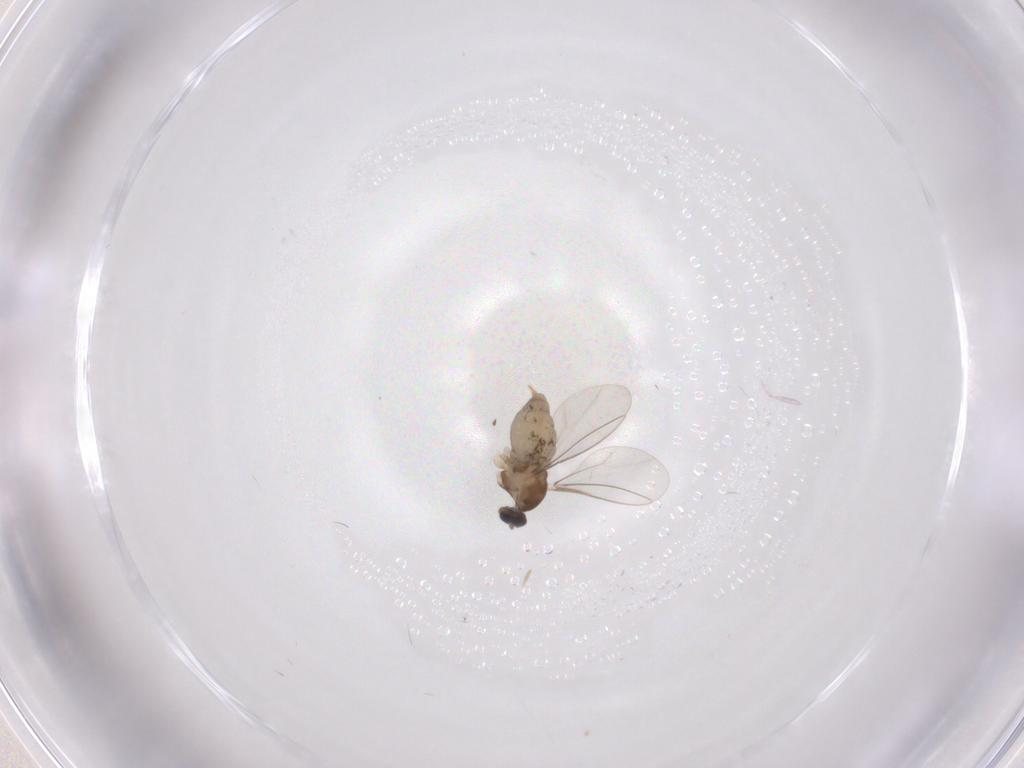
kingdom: Animalia
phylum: Arthropoda
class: Insecta
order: Diptera
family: Cecidomyiidae
